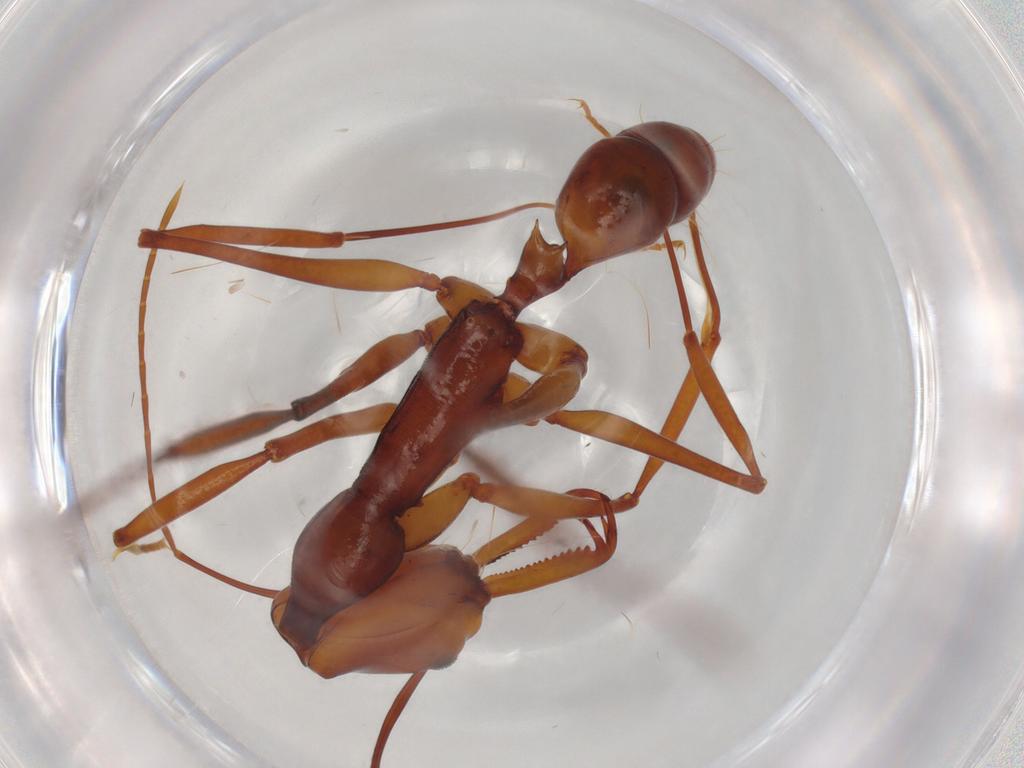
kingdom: Animalia
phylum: Arthropoda
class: Insecta
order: Hymenoptera
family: Formicidae
